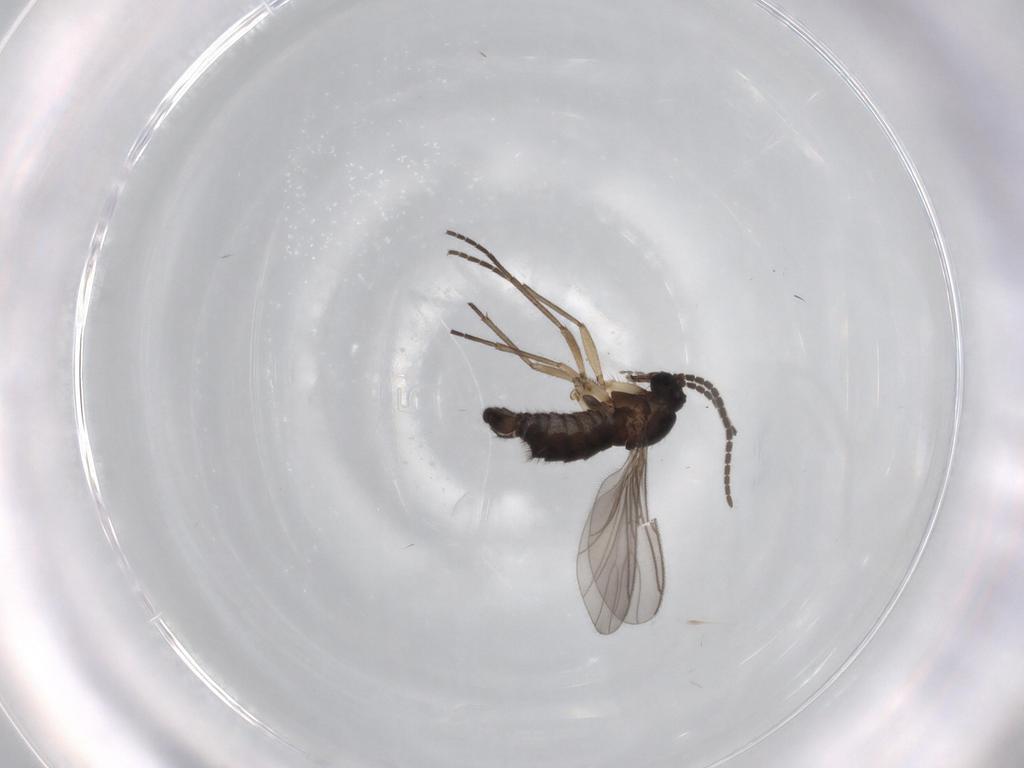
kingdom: Animalia
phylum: Arthropoda
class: Insecta
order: Diptera
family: Sciaridae
